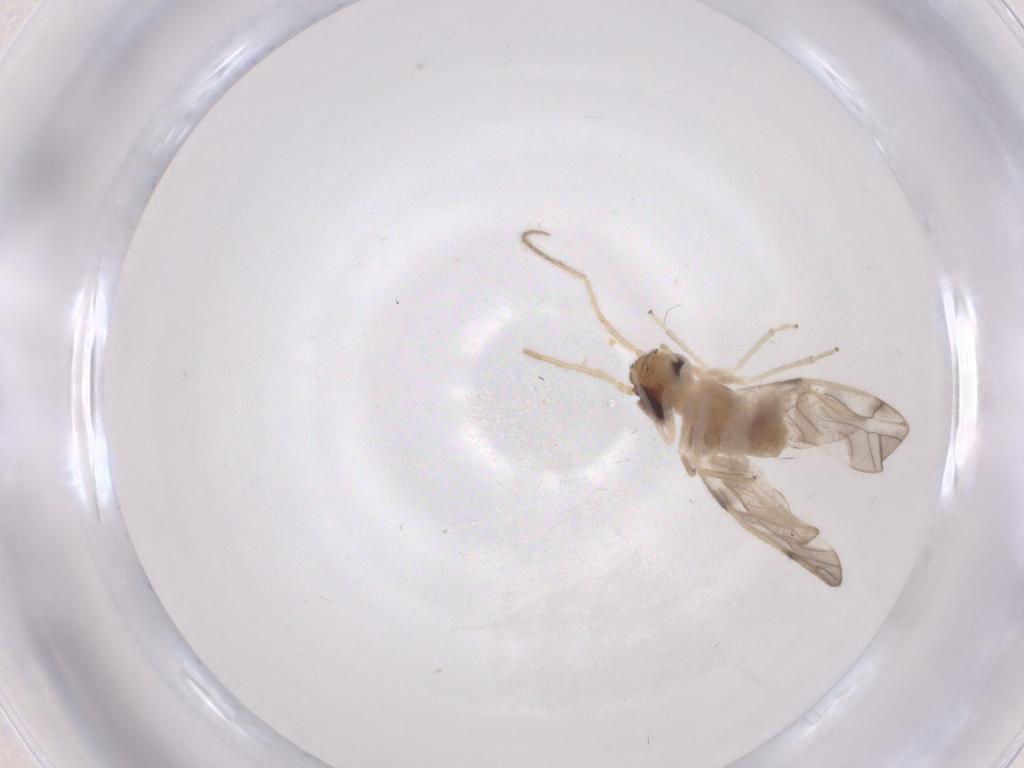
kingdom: Animalia
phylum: Arthropoda
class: Insecta
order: Psocodea
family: Caeciliusidae
